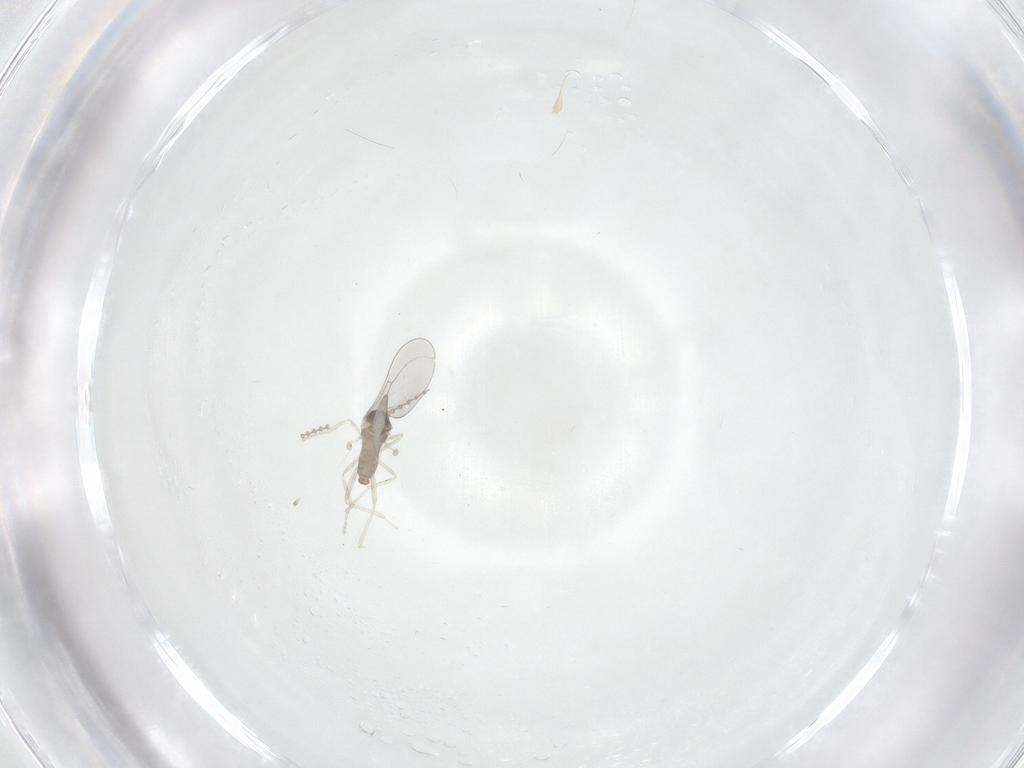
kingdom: Animalia
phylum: Arthropoda
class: Insecta
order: Diptera
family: Cecidomyiidae
